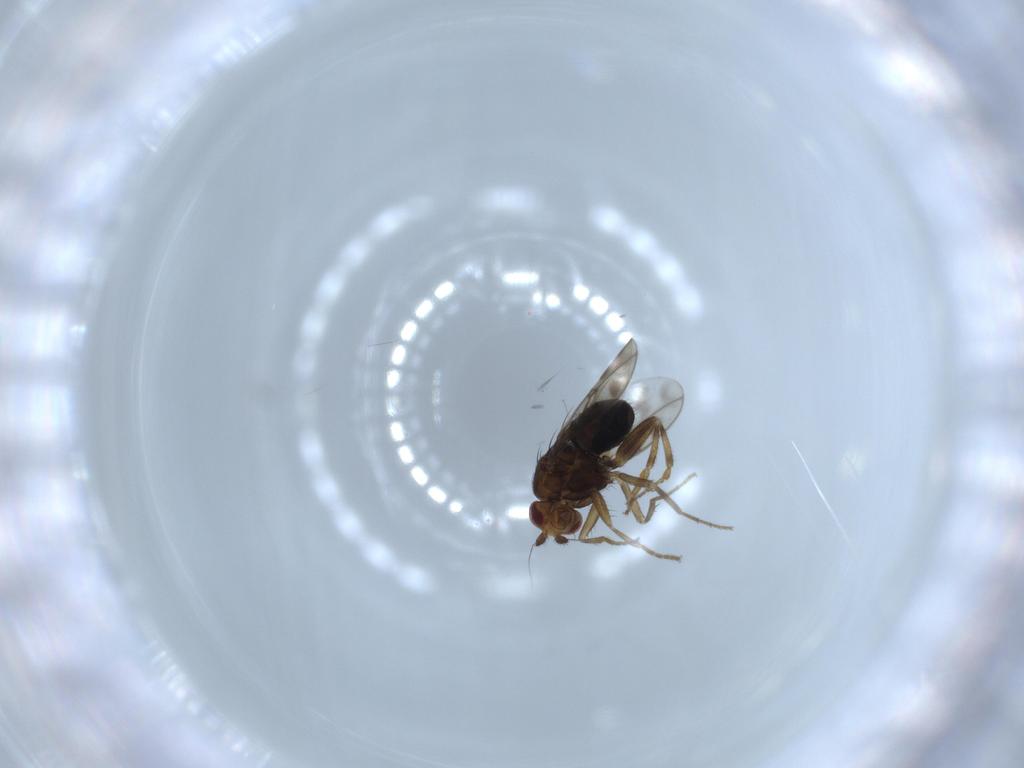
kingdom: Animalia
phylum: Arthropoda
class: Insecta
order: Diptera
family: Sphaeroceridae
